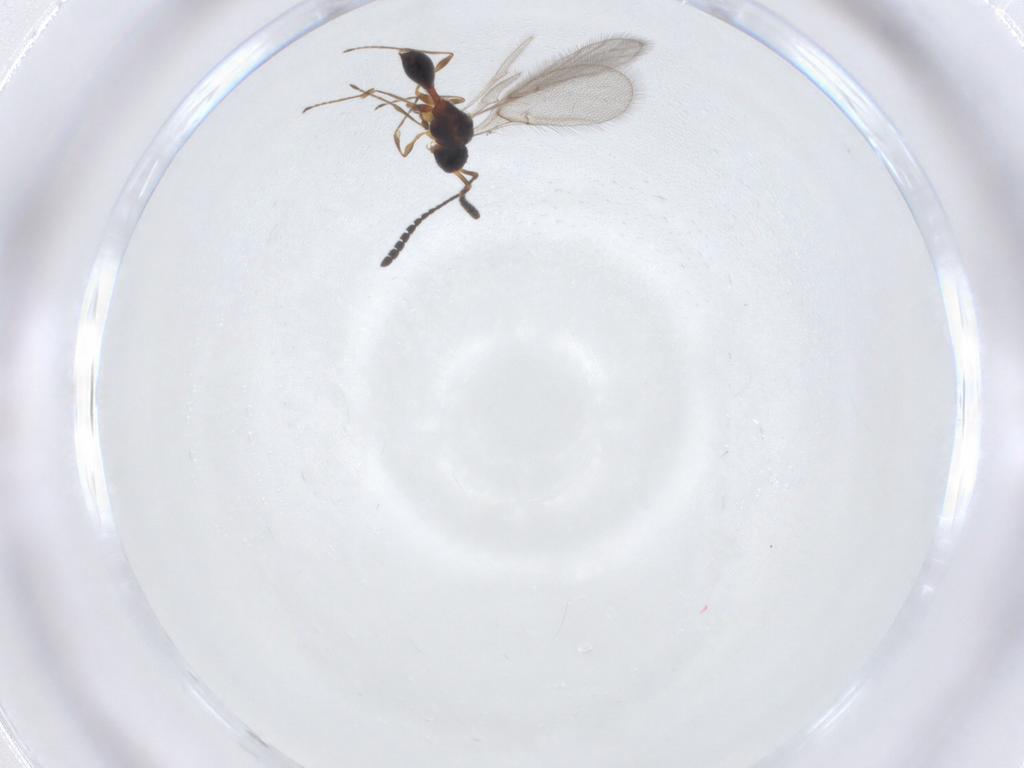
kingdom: Animalia
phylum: Arthropoda
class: Insecta
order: Hymenoptera
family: Diapriidae
